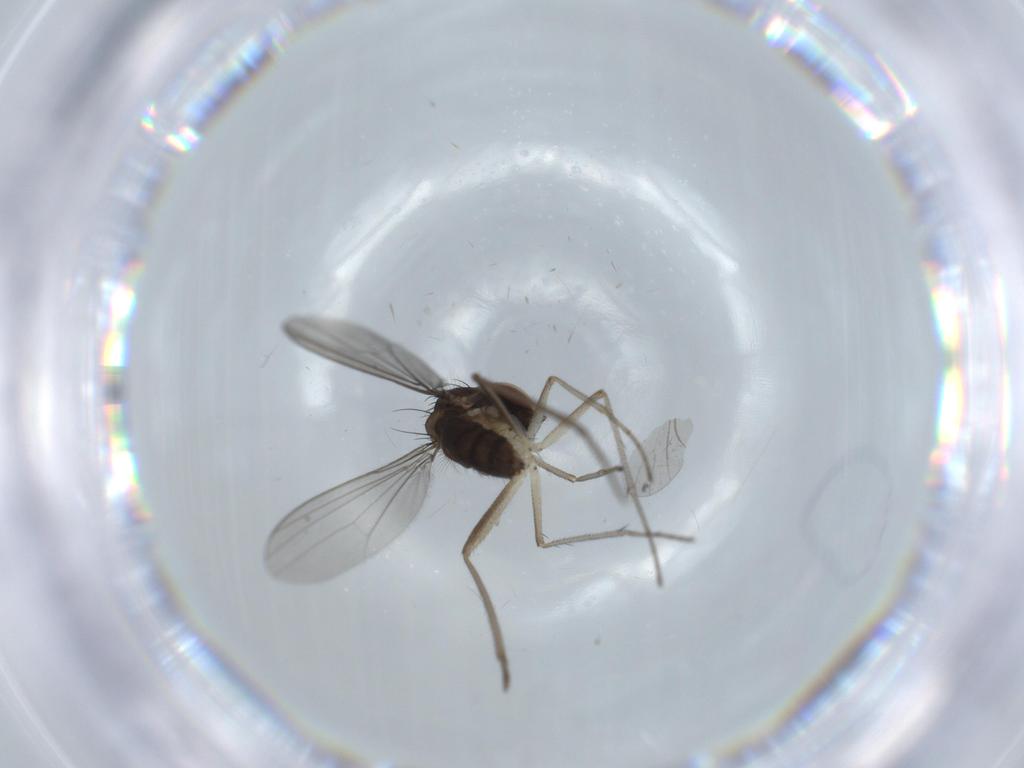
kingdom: Animalia
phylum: Arthropoda
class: Insecta
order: Diptera
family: Dolichopodidae
